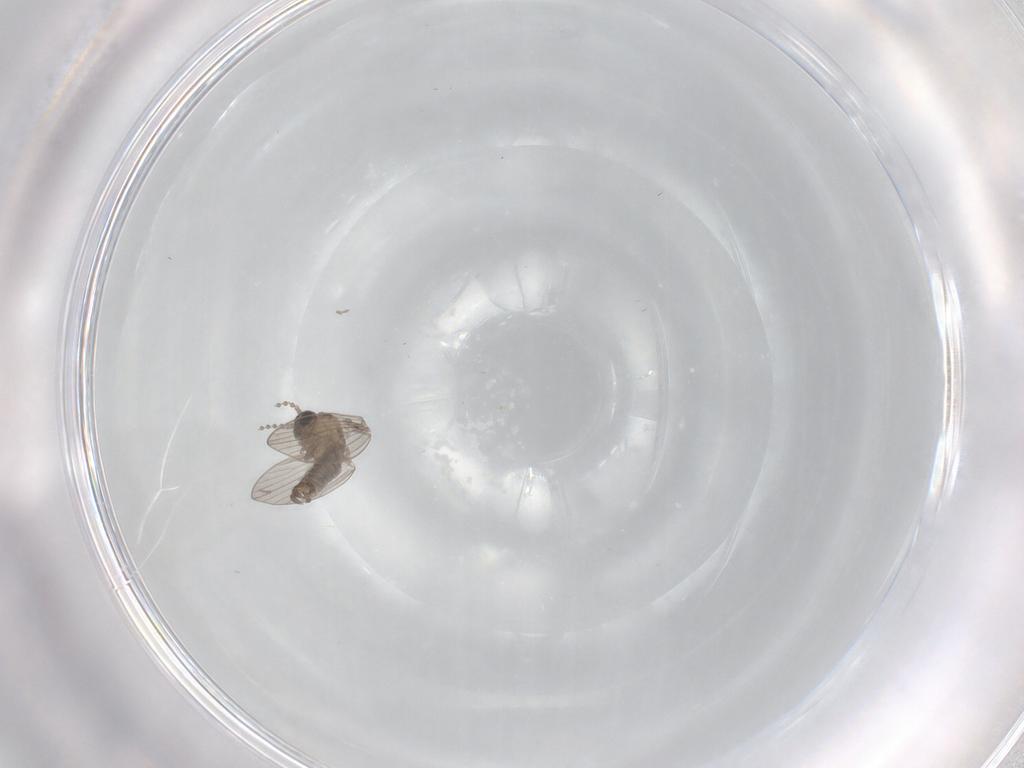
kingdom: Animalia
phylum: Arthropoda
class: Insecta
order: Diptera
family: Psychodidae
